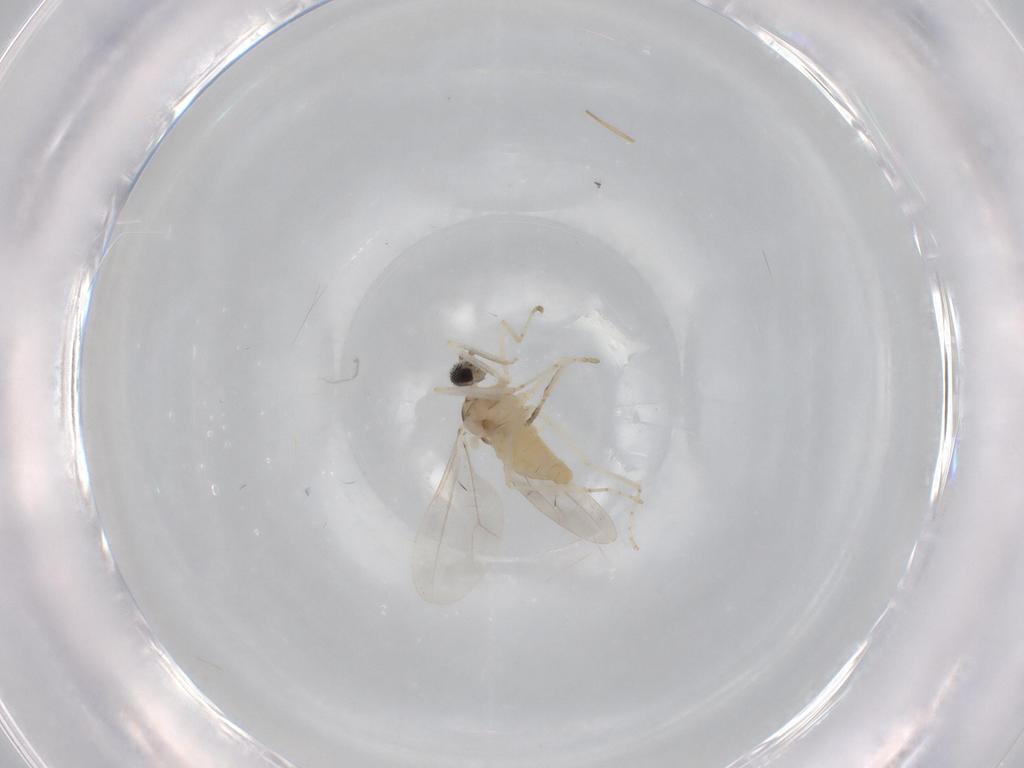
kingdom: Animalia
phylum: Arthropoda
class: Insecta
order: Diptera
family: Cecidomyiidae
